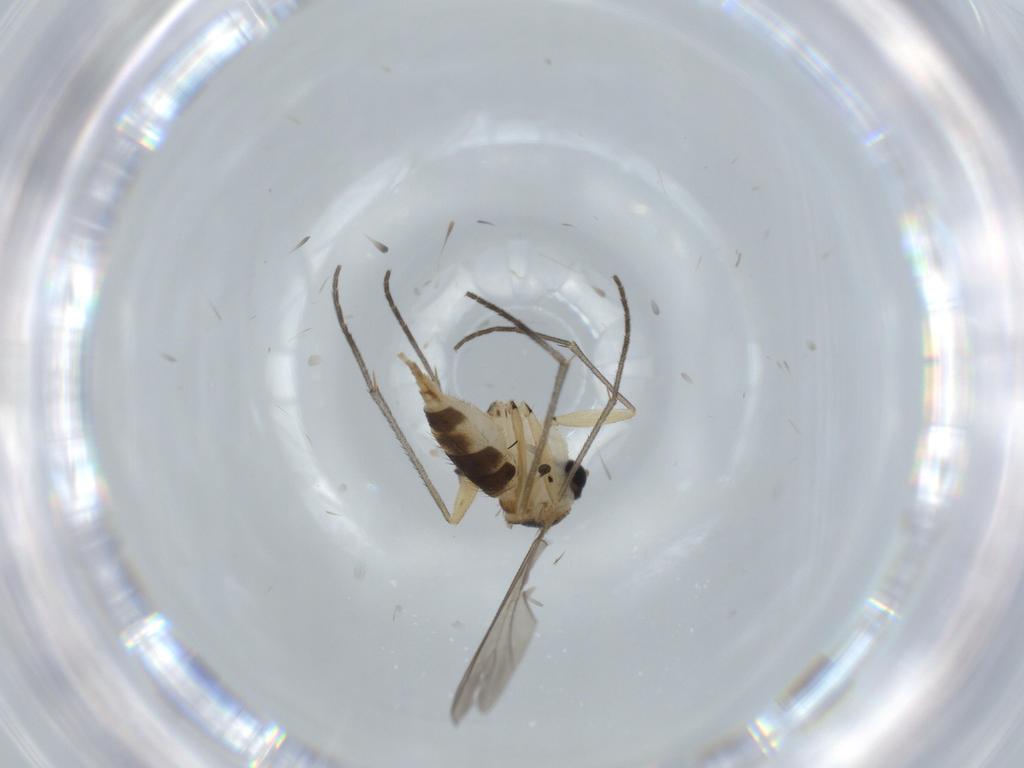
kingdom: Animalia
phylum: Arthropoda
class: Insecta
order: Diptera
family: Sciaridae
